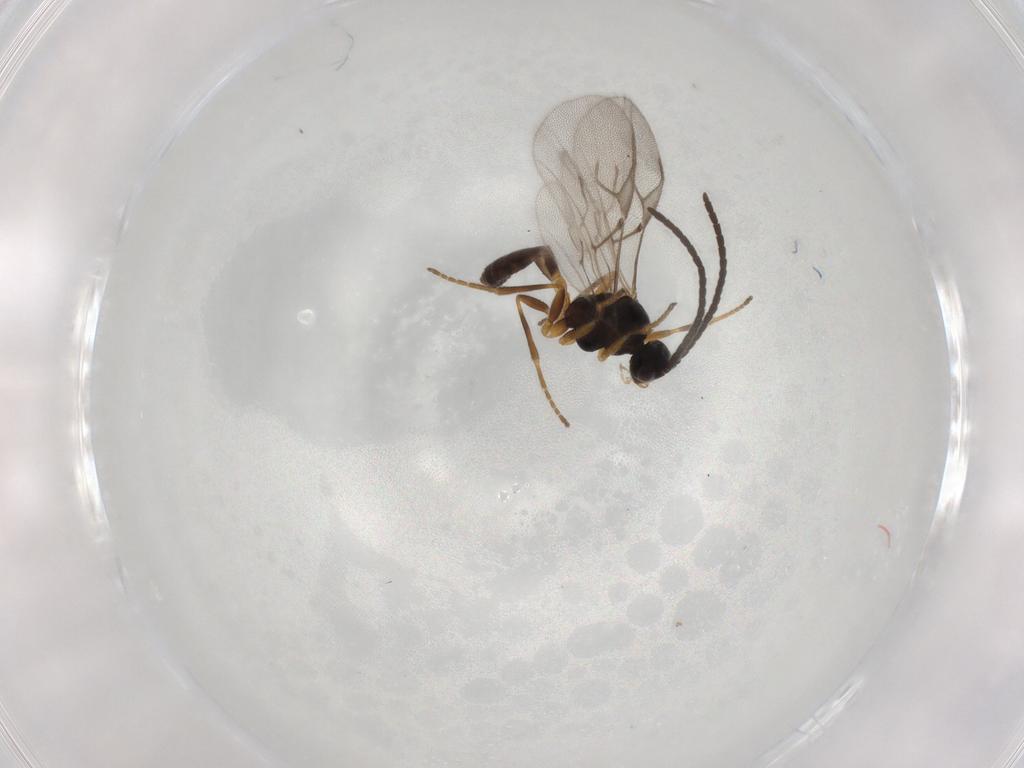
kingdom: Animalia
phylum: Arthropoda
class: Insecta
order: Hymenoptera
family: Braconidae
